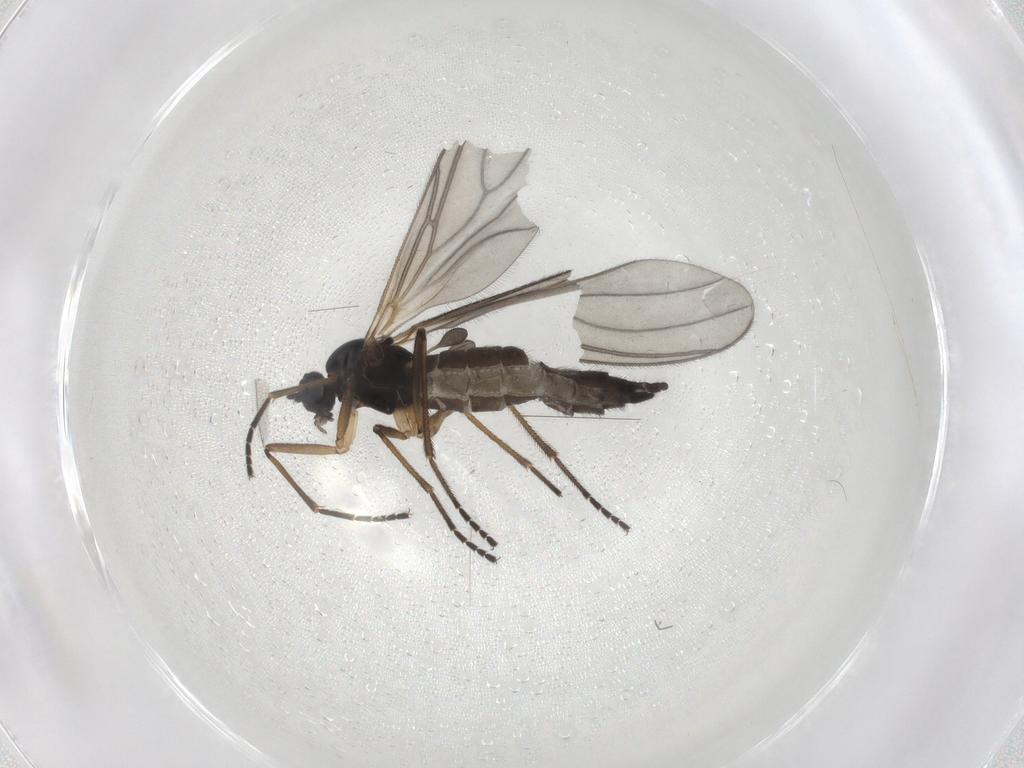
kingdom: Animalia
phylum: Arthropoda
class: Insecta
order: Diptera
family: Sciaridae
